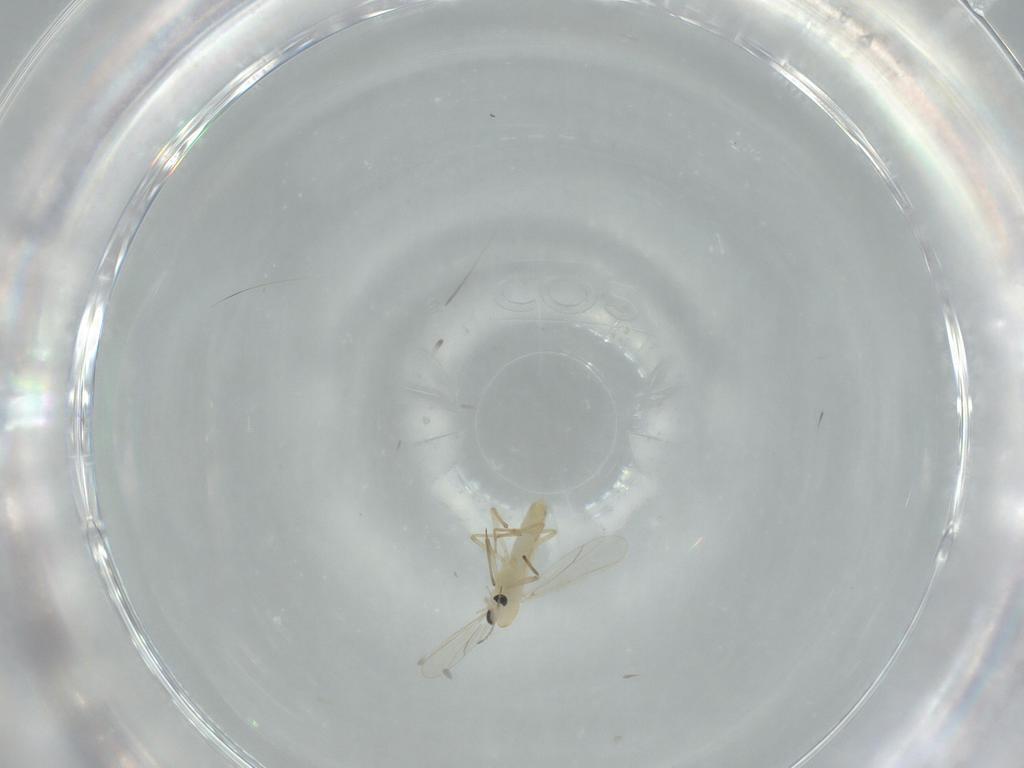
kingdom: Animalia
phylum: Arthropoda
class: Insecta
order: Diptera
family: Chironomidae
